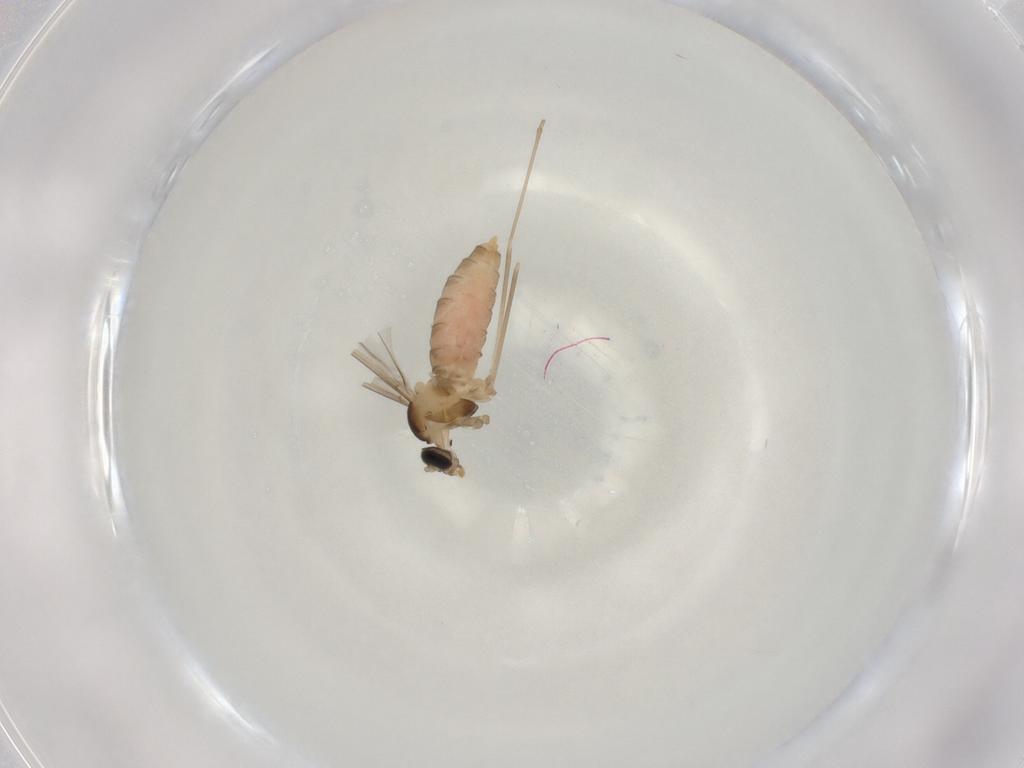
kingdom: Animalia
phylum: Arthropoda
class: Insecta
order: Diptera
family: Cecidomyiidae
